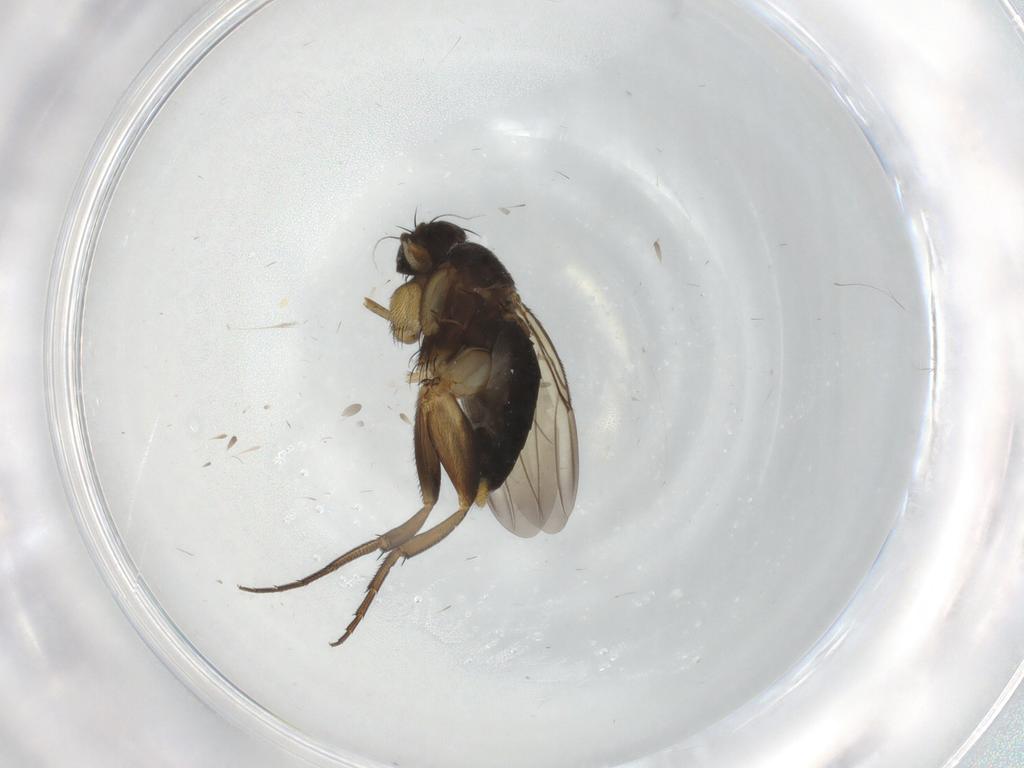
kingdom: Animalia
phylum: Arthropoda
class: Insecta
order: Diptera
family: Phoridae
